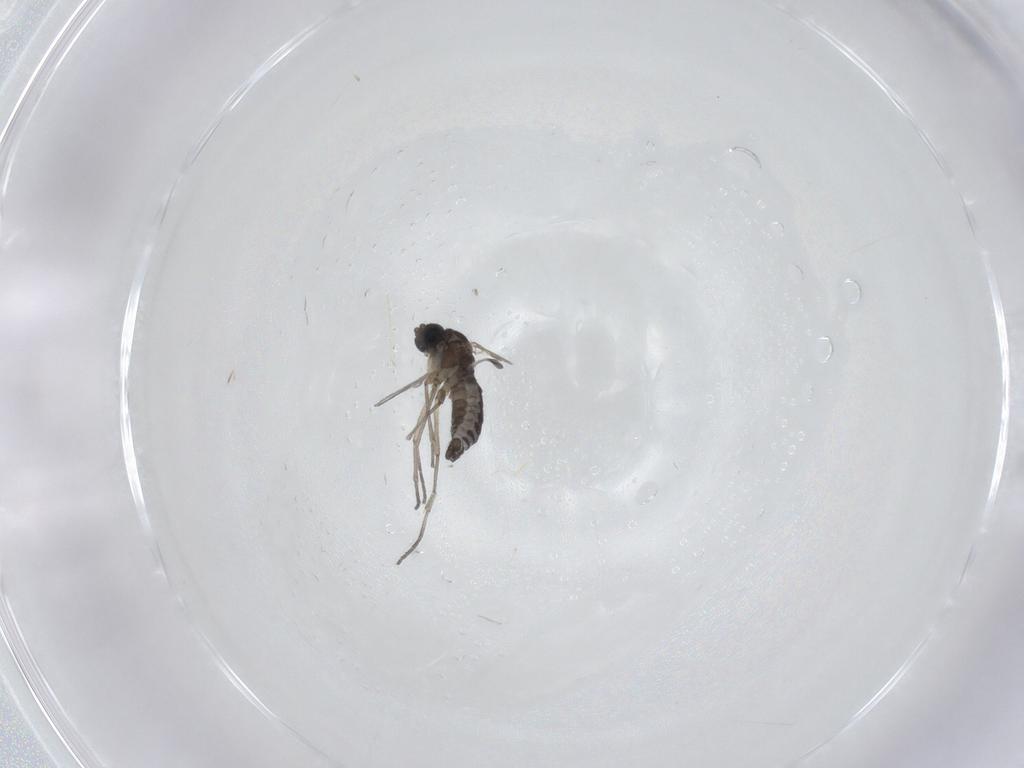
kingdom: Animalia
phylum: Arthropoda
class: Insecta
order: Diptera
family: Sciaridae
